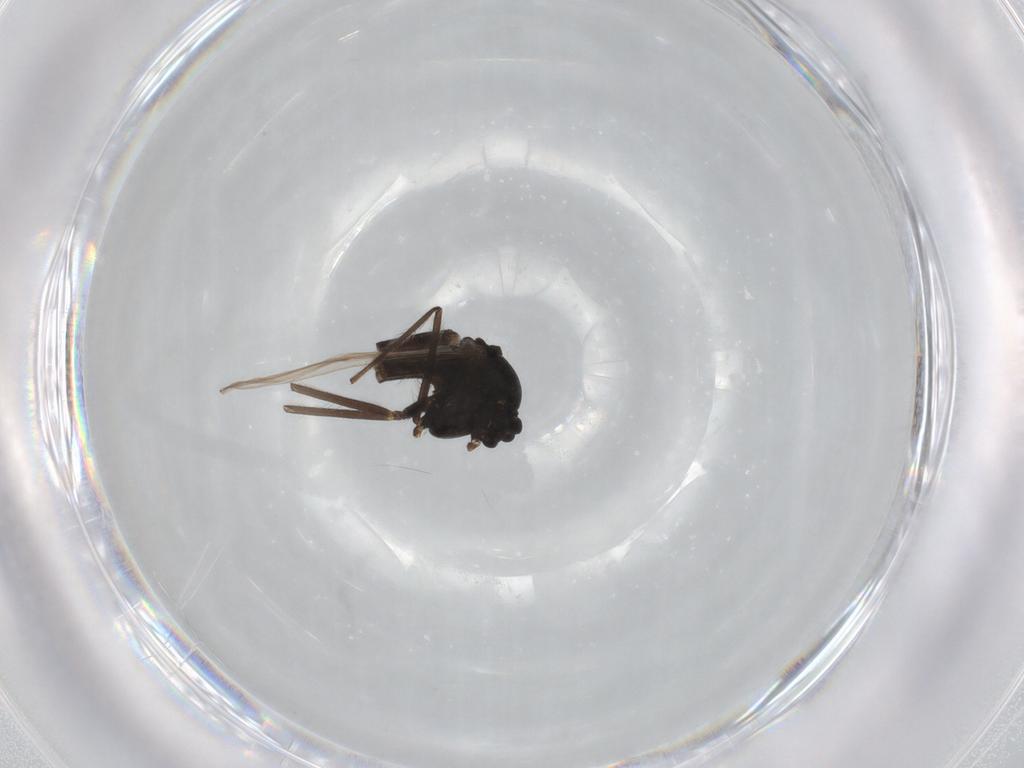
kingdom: Animalia
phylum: Arthropoda
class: Insecta
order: Diptera
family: Chironomidae
